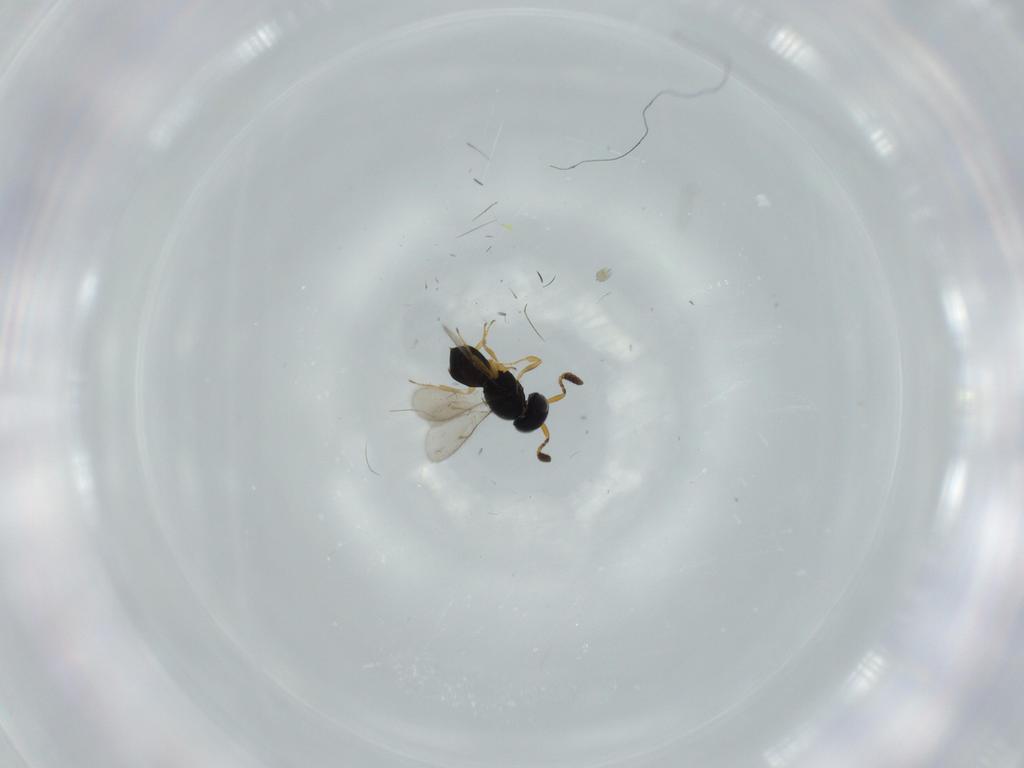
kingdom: Animalia
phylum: Arthropoda
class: Insecta
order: Hymenoptera
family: Scelionidae
